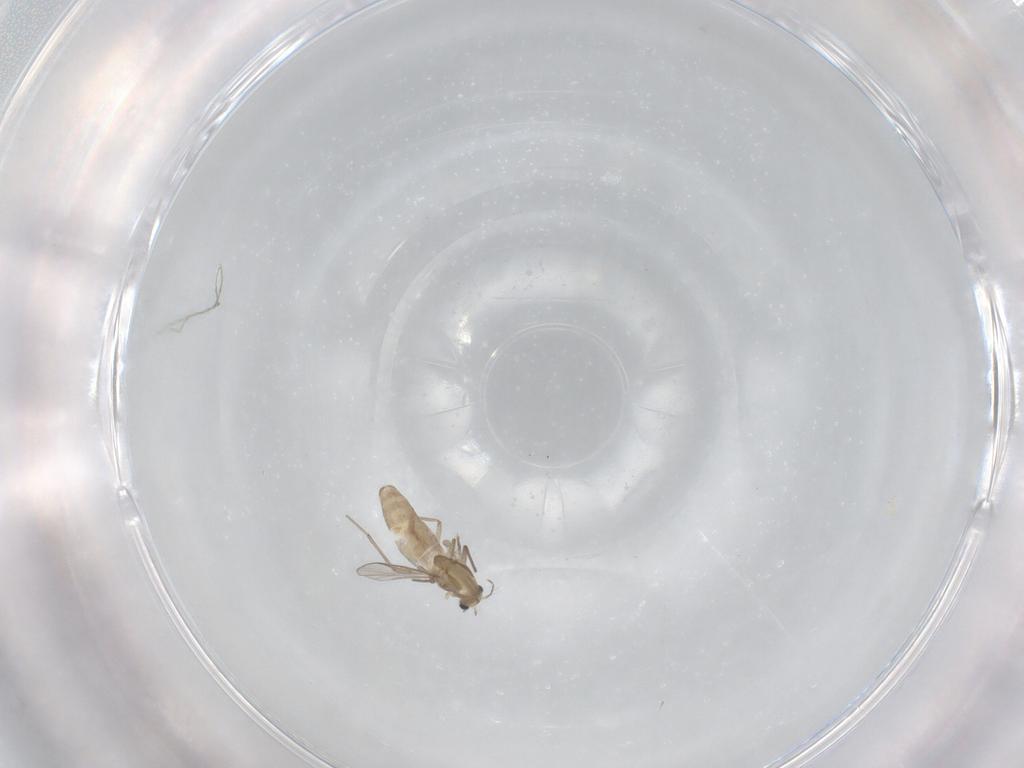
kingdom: Animalia
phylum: Arthropoda
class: Insecta
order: Diptera
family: Chironomidae
